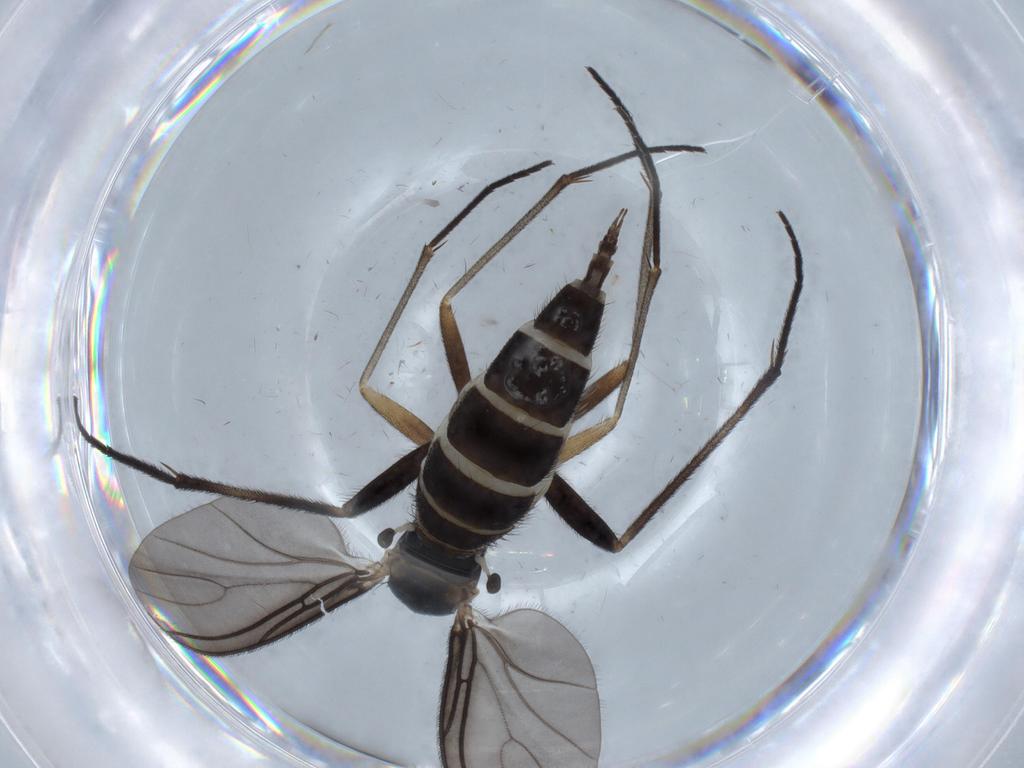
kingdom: Animalia
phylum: Arthropoda
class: Insecta
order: Diptera
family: Sciaridae
